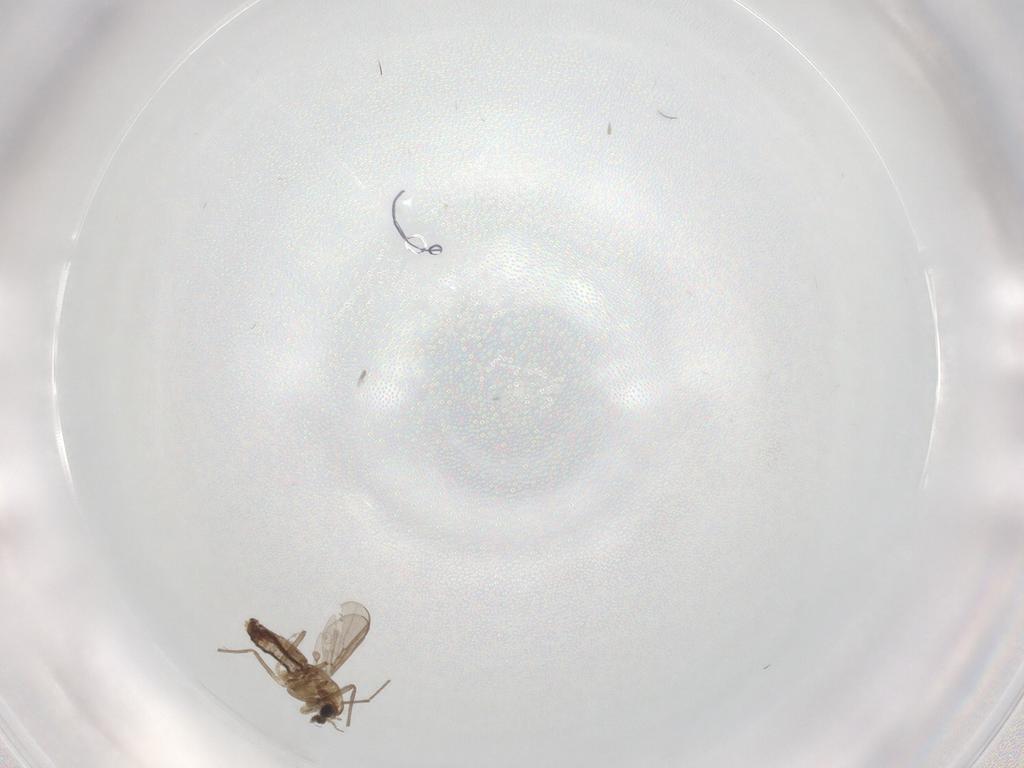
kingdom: Animalia
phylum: Arthropoda
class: Insecta
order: Diptera
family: Chironomidae
